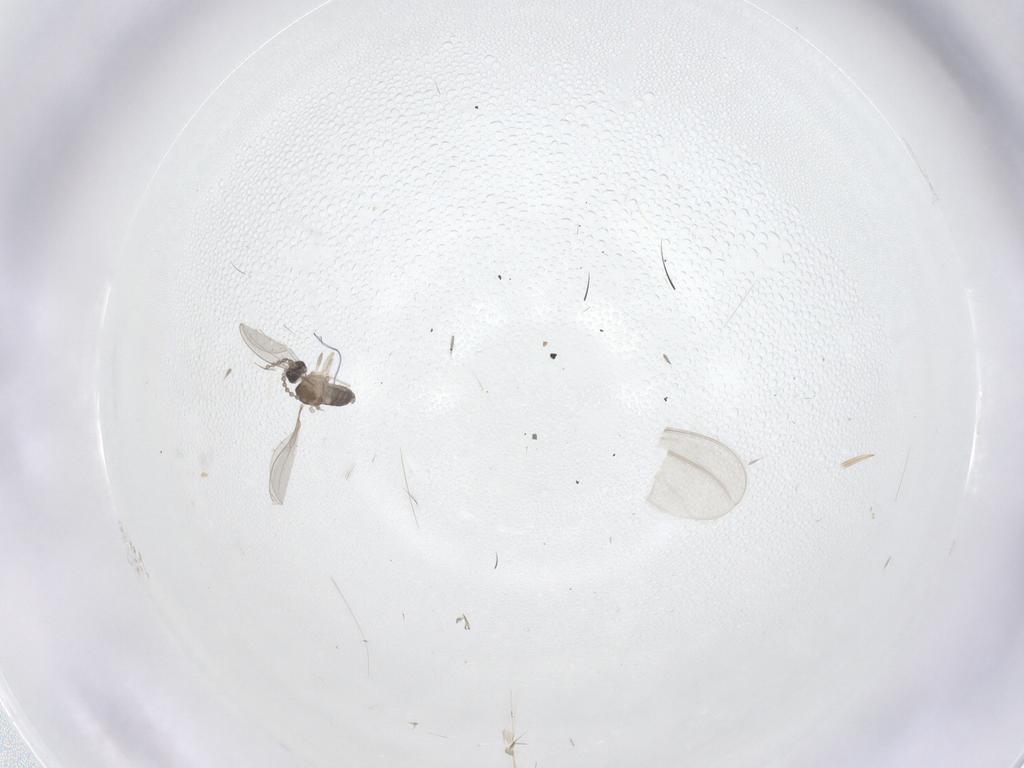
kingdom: Animalia
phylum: Arthropoda
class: Insecta
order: Diptera
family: Cecidomyiidae
